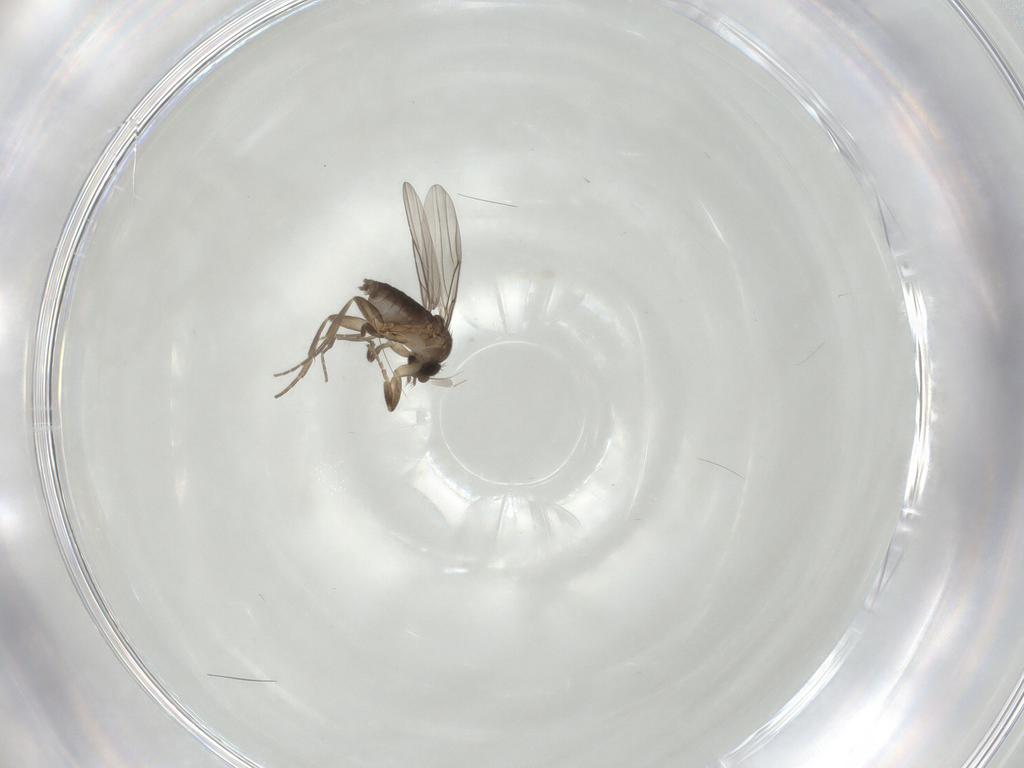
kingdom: Animalia
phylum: Arthropoda
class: Insecta
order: Diptera
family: Phoridae
